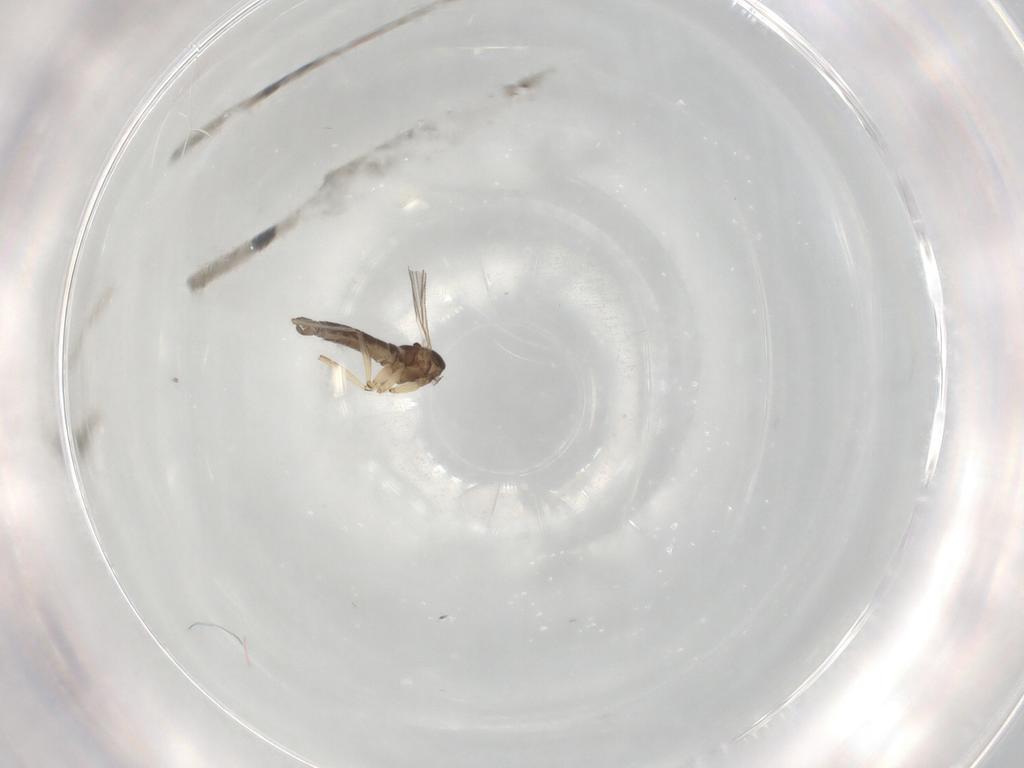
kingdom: Animalia
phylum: Arthropoda
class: Insecta
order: Diptera
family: Sciaridae
